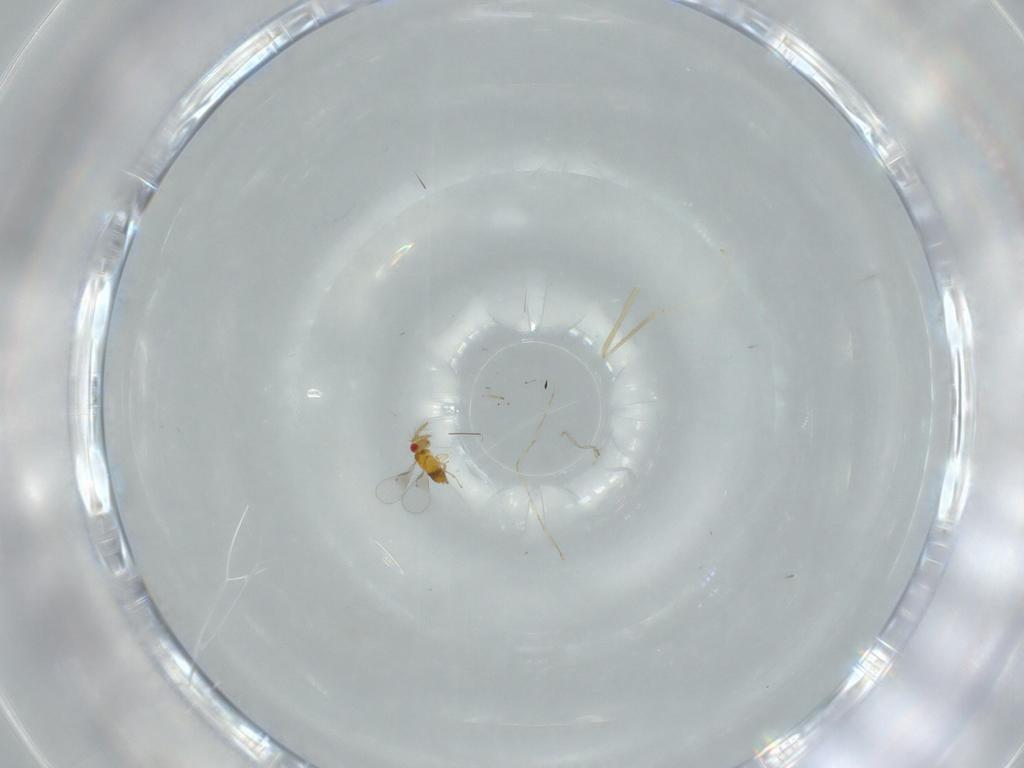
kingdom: Animalia
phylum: Arthropoda
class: Insecta
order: Hymenoptera
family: Trichogrammatidae
